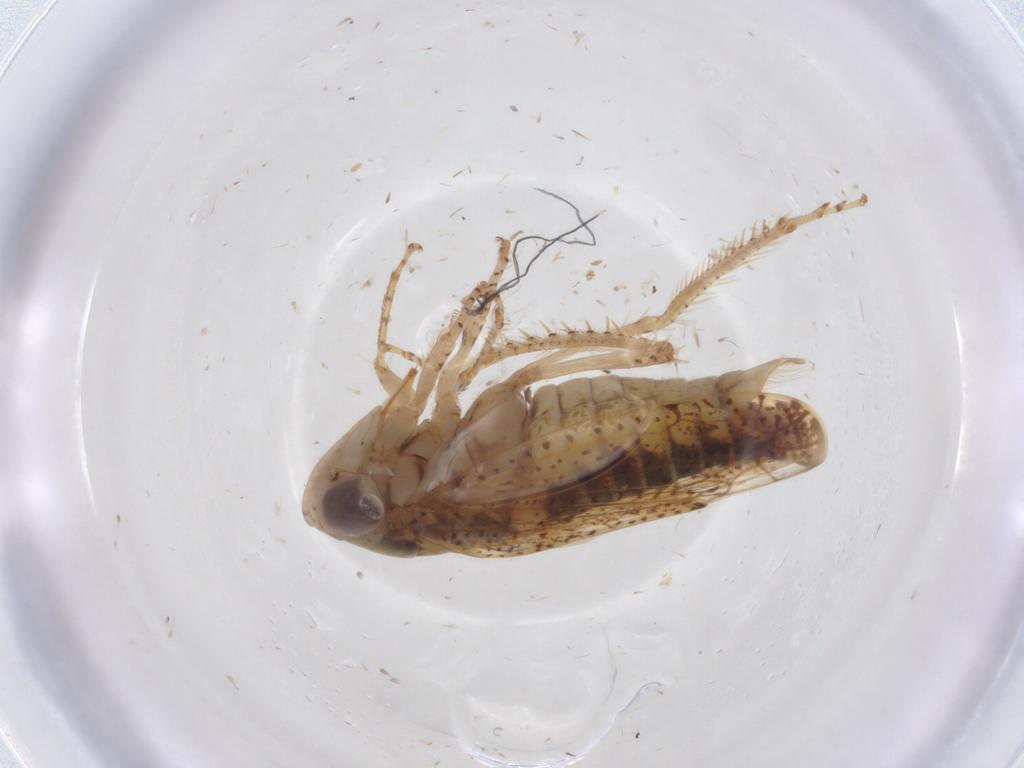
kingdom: Animalia
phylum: Arthropoda
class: Insecta
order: Hemiptera
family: Cicadellidae
